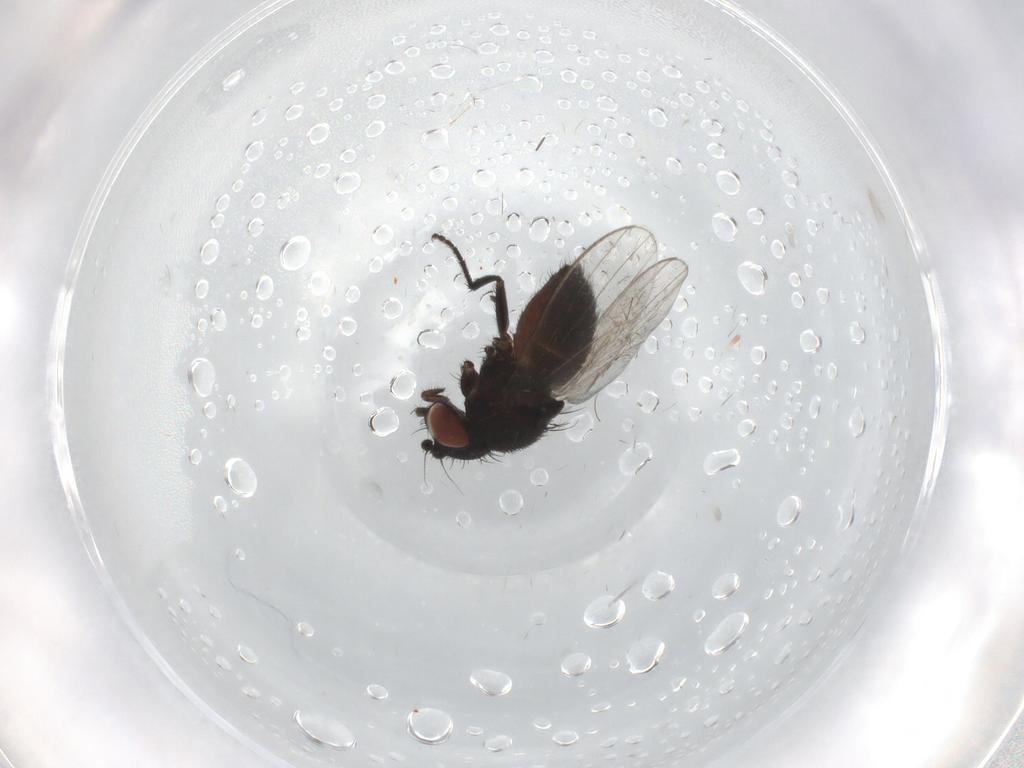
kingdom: Animalia
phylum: Arthropoda
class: Insecta
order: Diptera
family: Milichiidae
